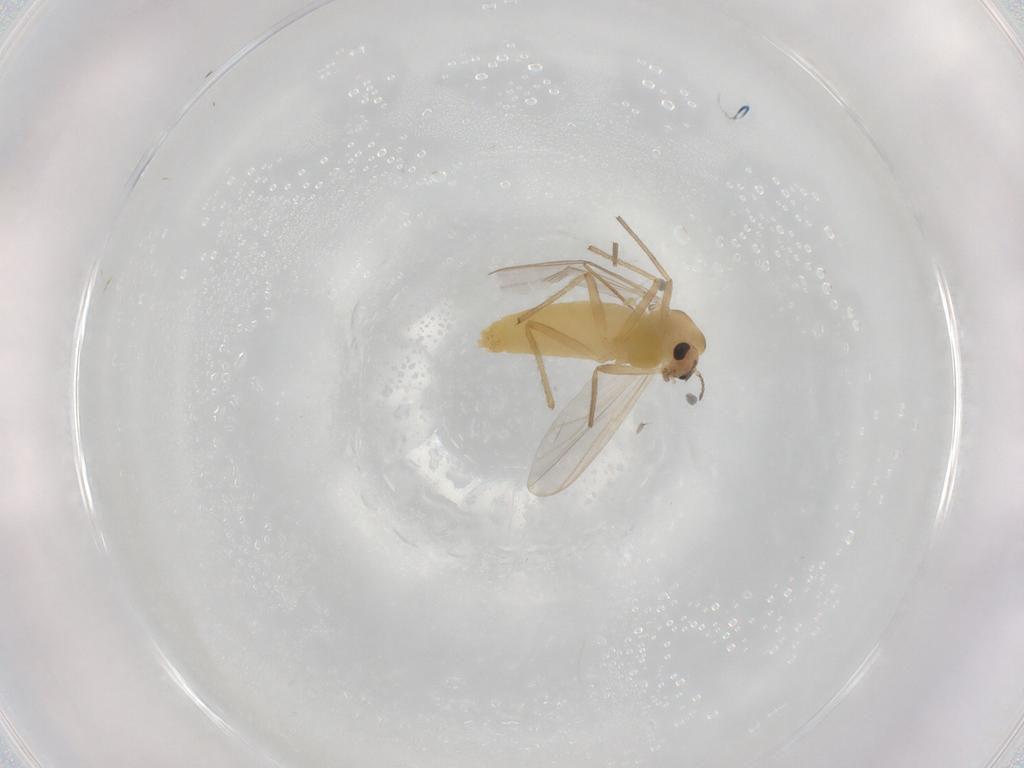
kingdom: Animalia
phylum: Arthropoda
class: Insecta
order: Diptera
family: Chironomidae
